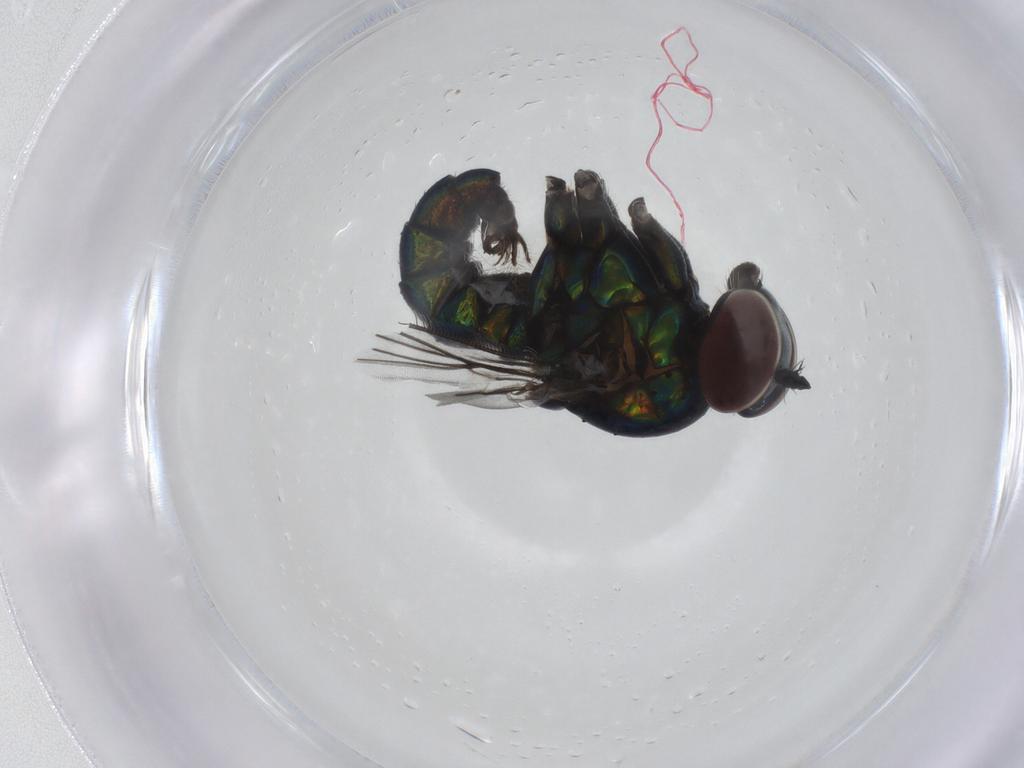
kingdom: Animalia
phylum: Arthropoda
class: Insecta
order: Diptera
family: Dolichopodidae
